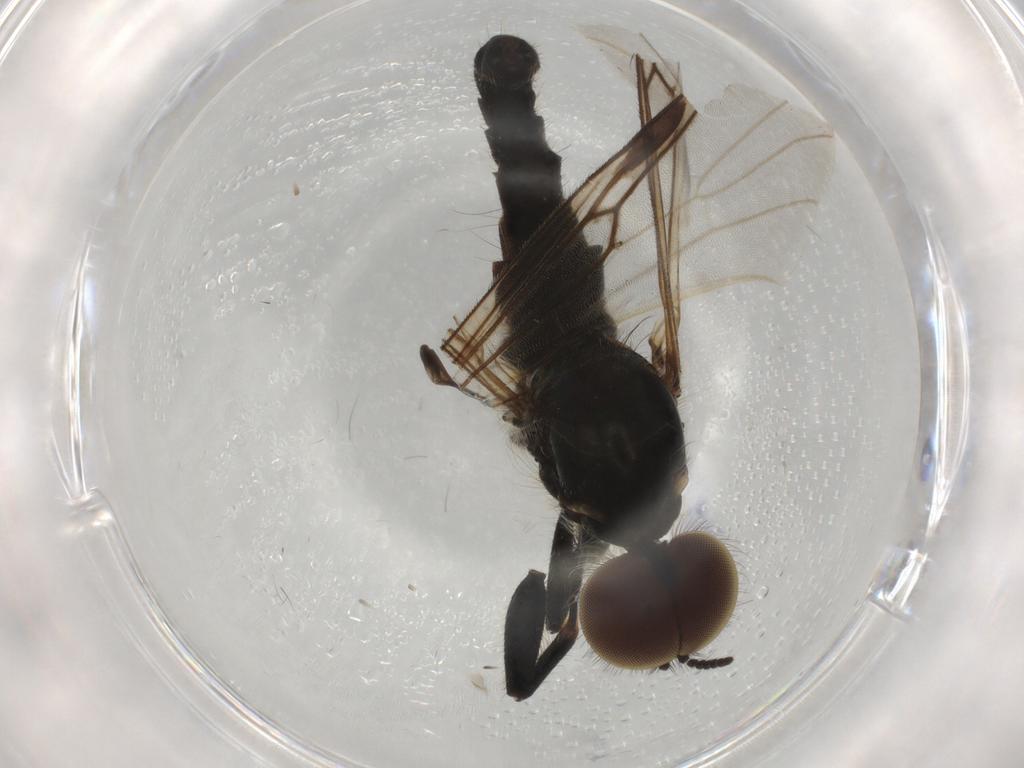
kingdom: Animalia
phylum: Arthropoda
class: Insecta
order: Diptera
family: Chironomidae
